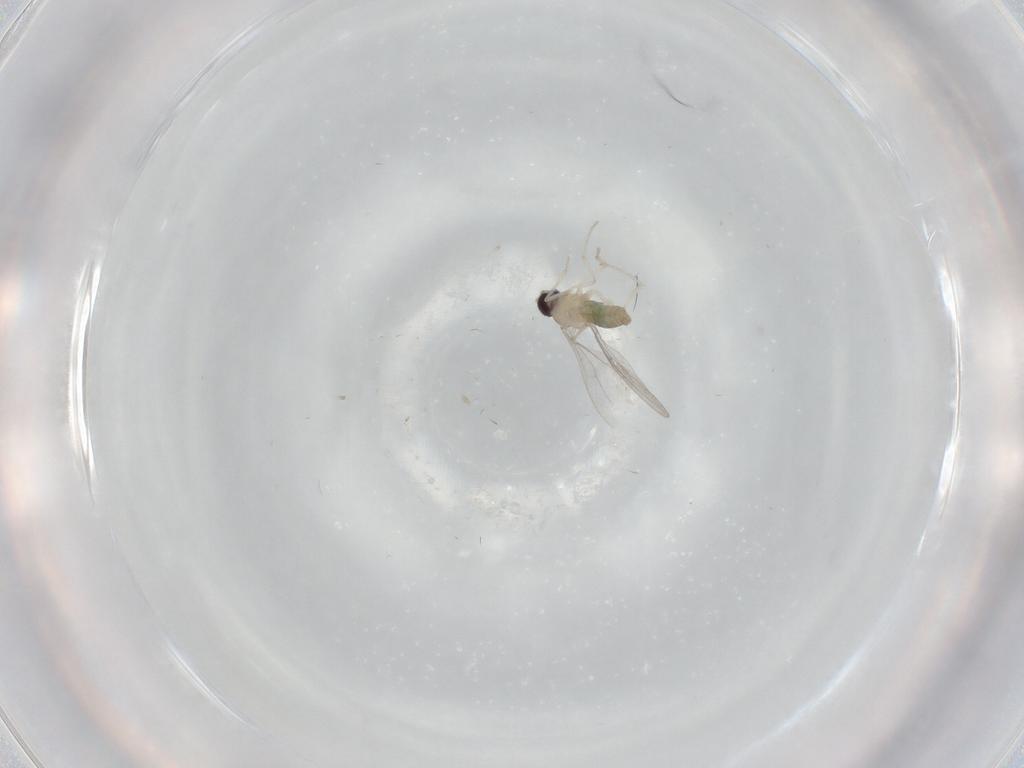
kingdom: Animalia
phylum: Arthropoda
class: Insecta
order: Diptera
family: Cecidomyiidae
